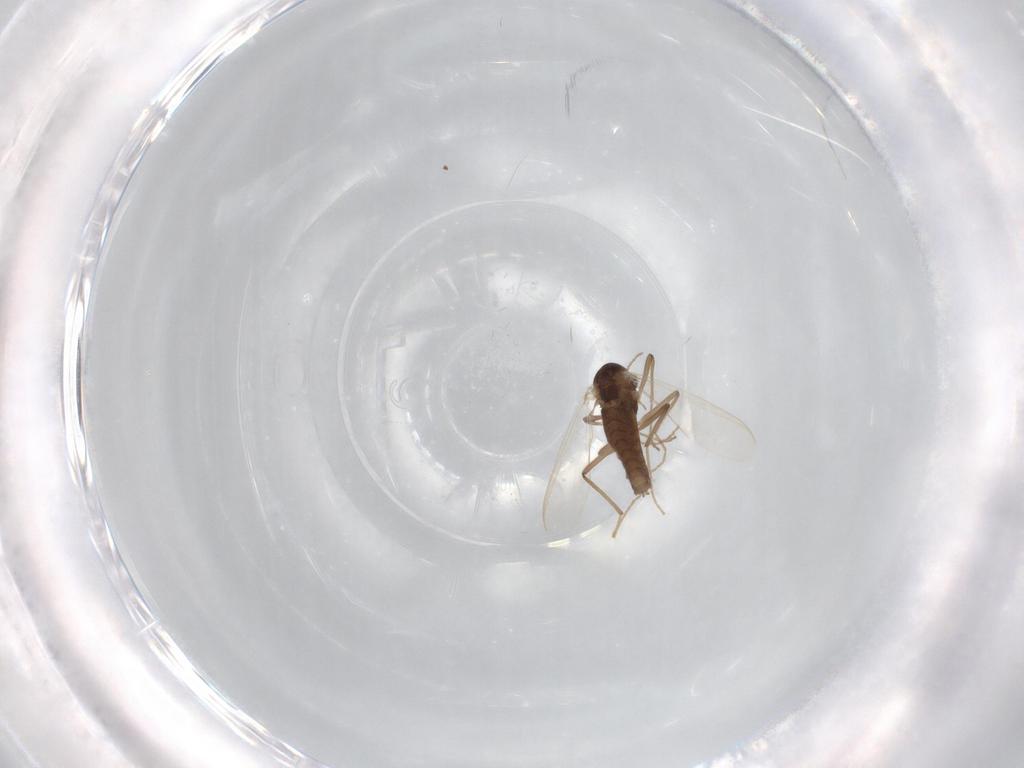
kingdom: Animalia
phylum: Arthropoda
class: Insecta
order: Diptera
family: Chironomidae
